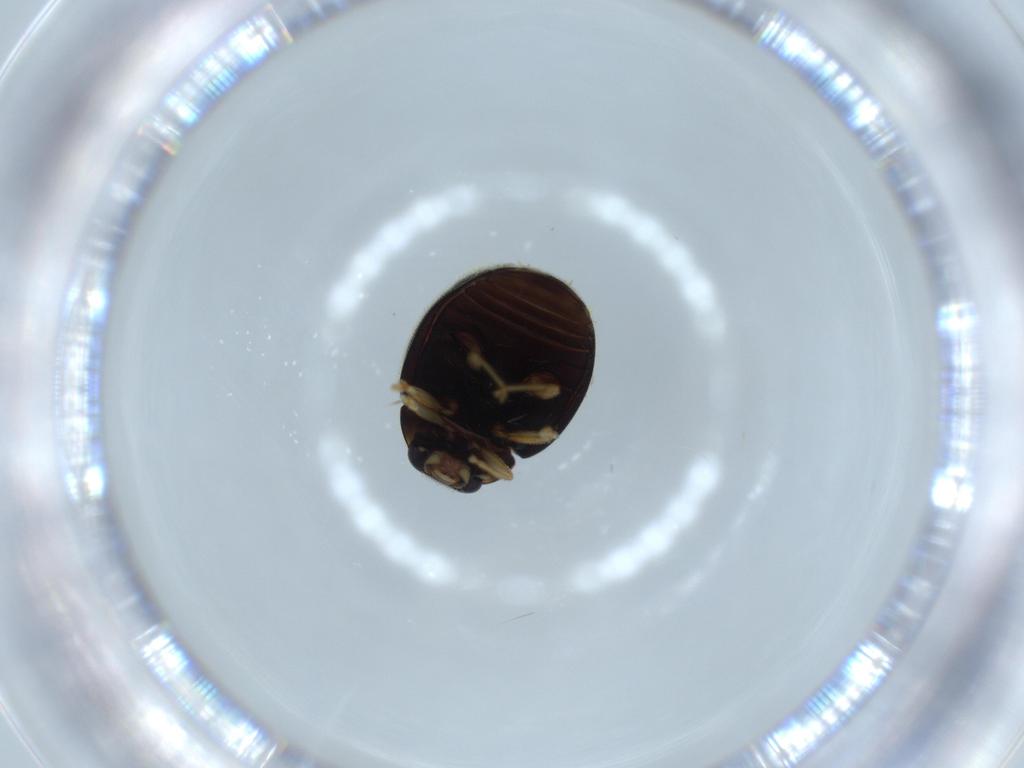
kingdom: Animalia
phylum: Arthropoda
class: Insecta
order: Coleoptera
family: Coccinellidae
